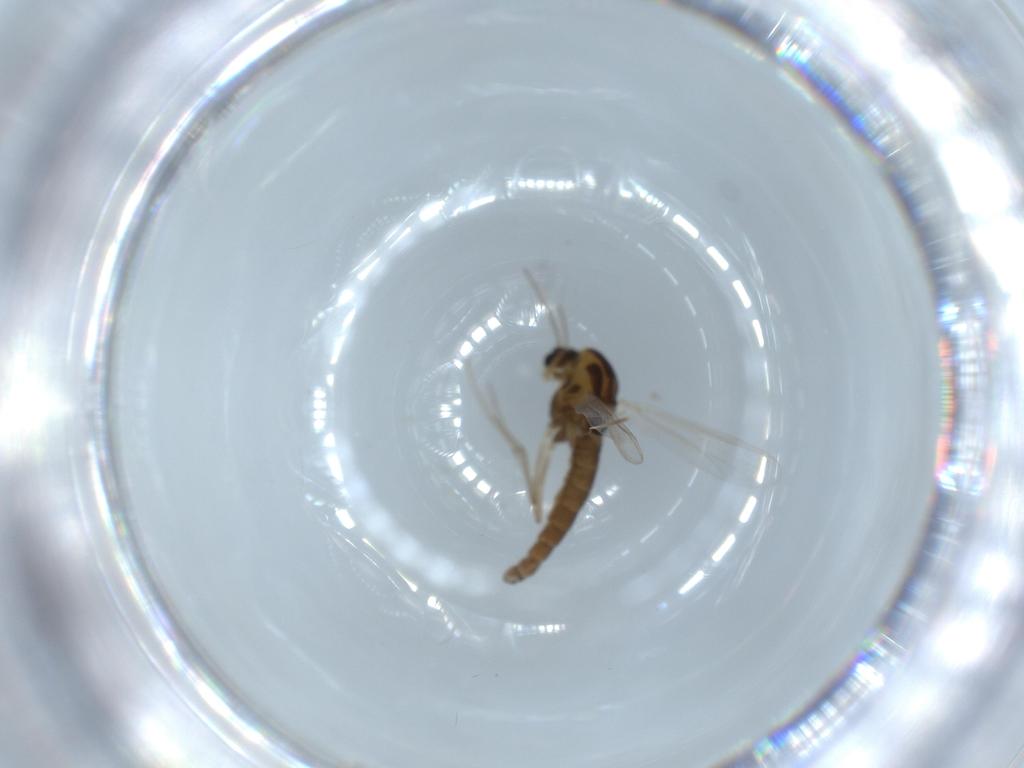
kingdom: Animalia
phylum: Arthropoda
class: Insecta
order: Diptera
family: Chironomidae
